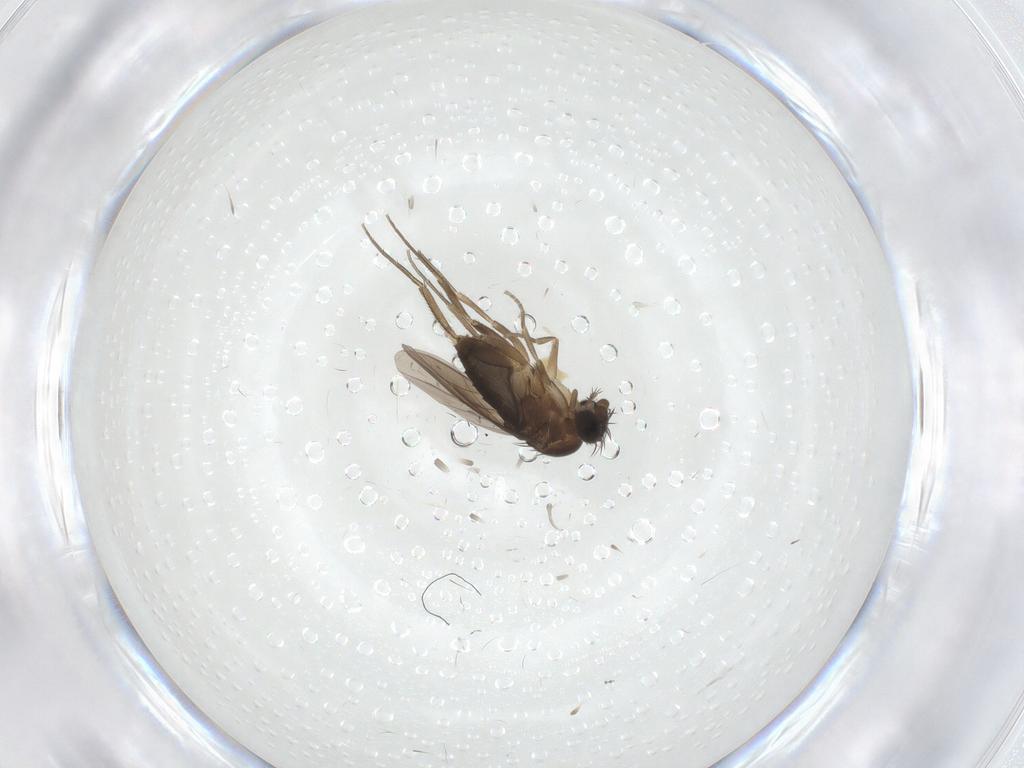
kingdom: Animalia
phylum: Arthropoda
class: Insecta
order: Diptera
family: Phoridae
